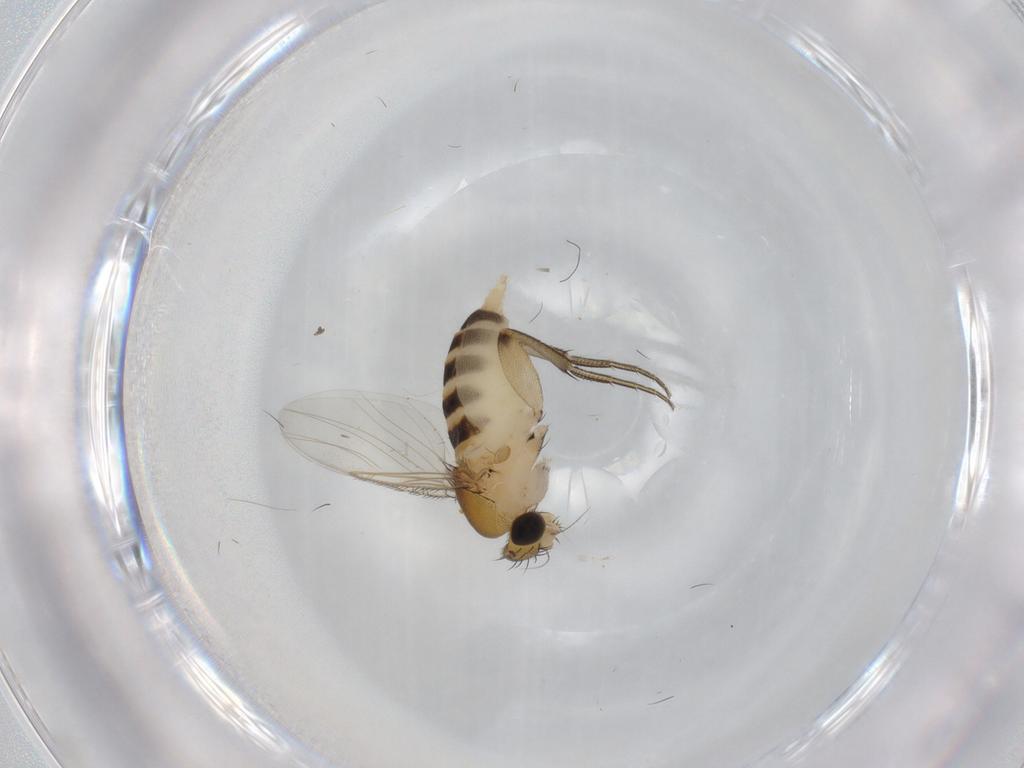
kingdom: Animalia
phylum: Arthropoda
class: Insecta
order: Diptera
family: Phoridae
